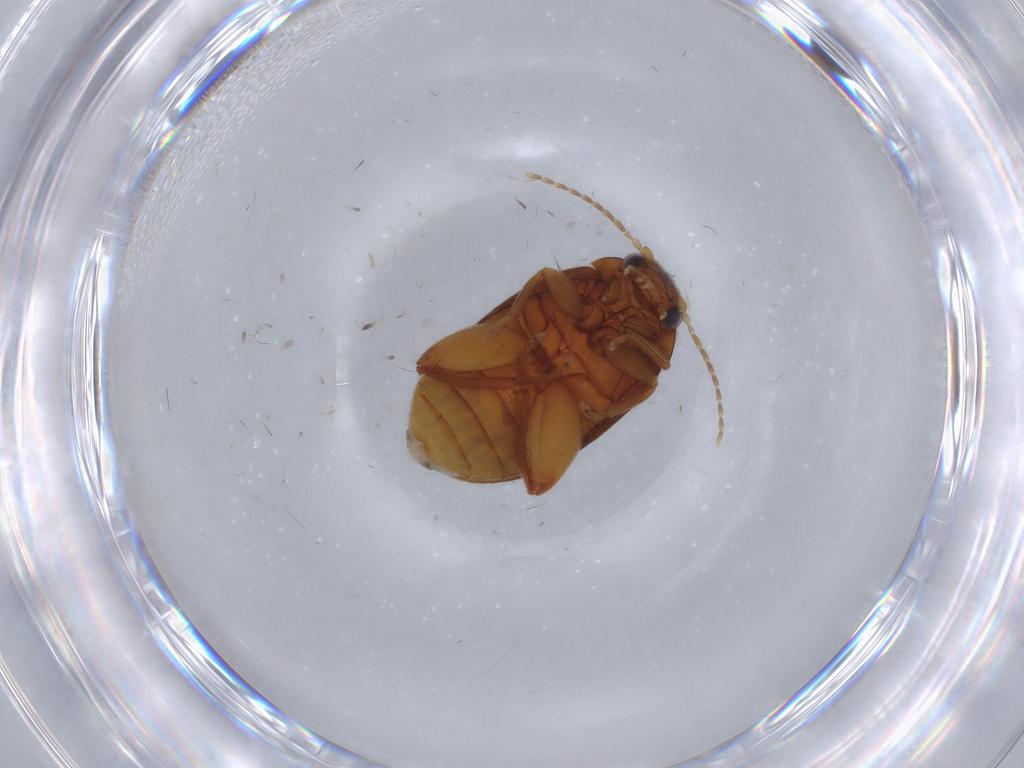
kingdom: Animalia
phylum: Arthropoda
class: Insecta
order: Coleoptera
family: Scirtidae
